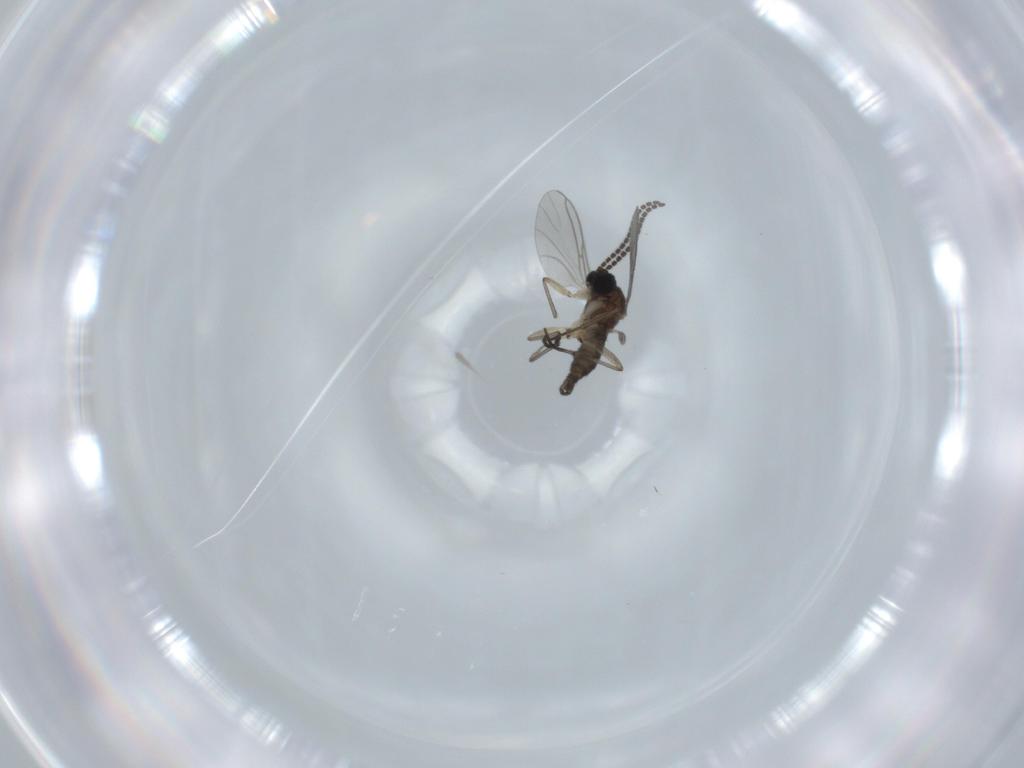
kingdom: Animalia
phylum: Arthropoda
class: Insecta
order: Diptera
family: Sciaridae
